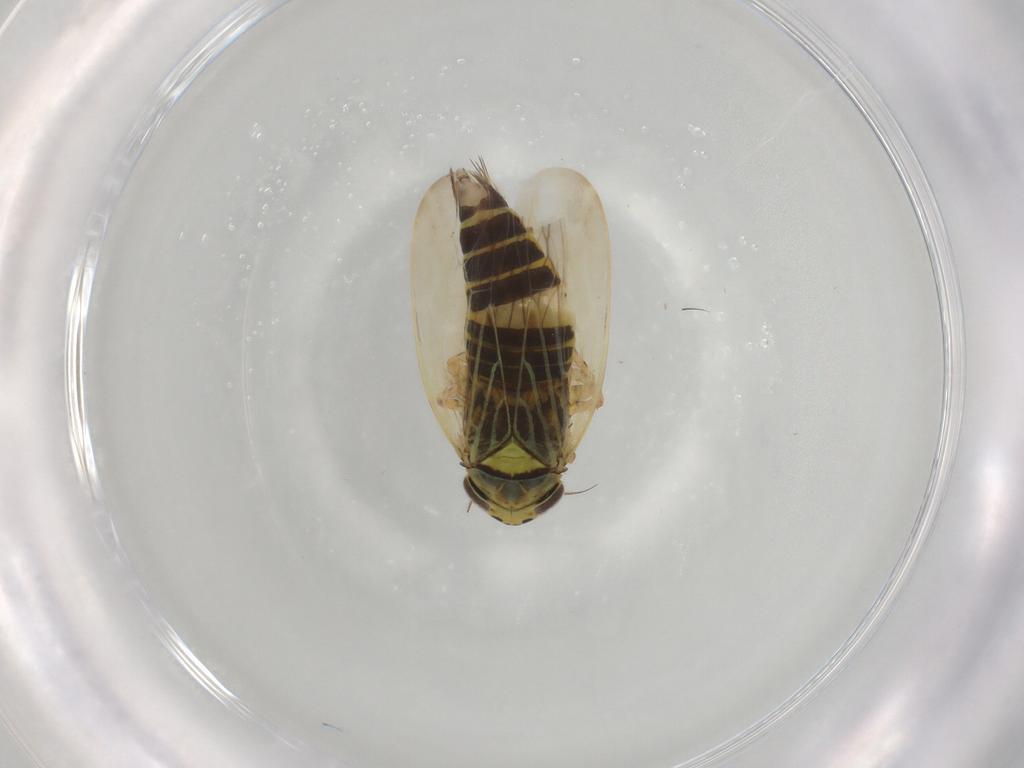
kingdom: Animalia
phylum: Arthropoda
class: Insecta
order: Hemiptera
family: Cicadellidae
